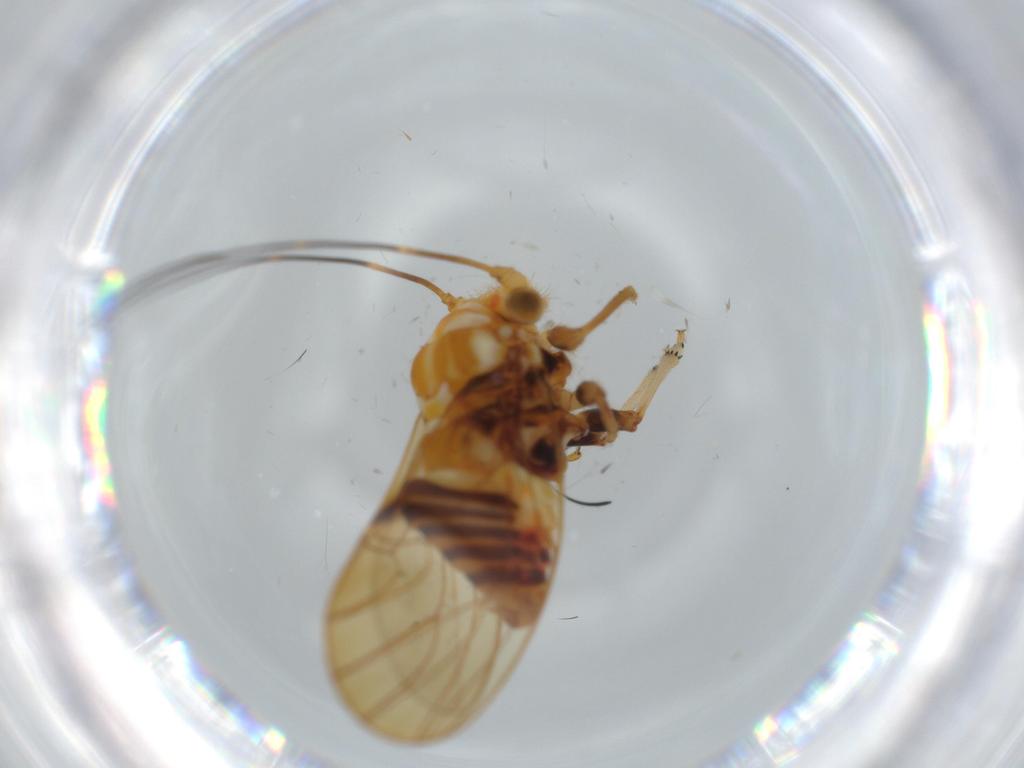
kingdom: Animalia
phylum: Arthropoda
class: Insecta
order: Hemiptera
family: Psyllidae
